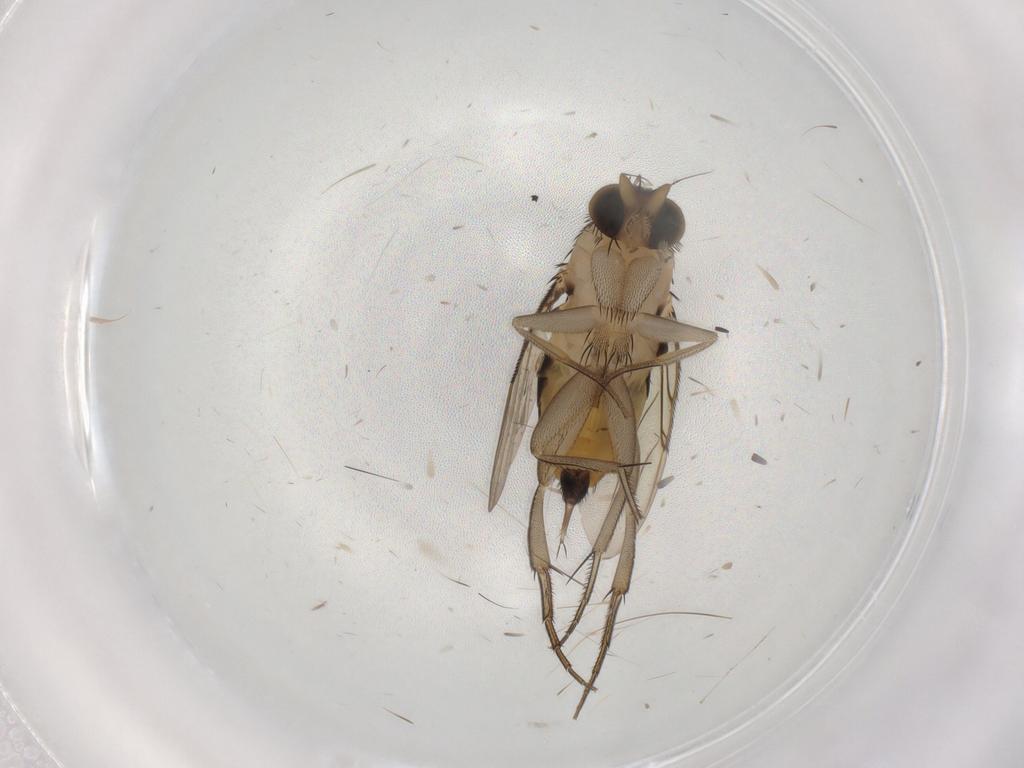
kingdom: Animalia
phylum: Arthropoda
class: Insecta
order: Diptera
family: Phoridae
